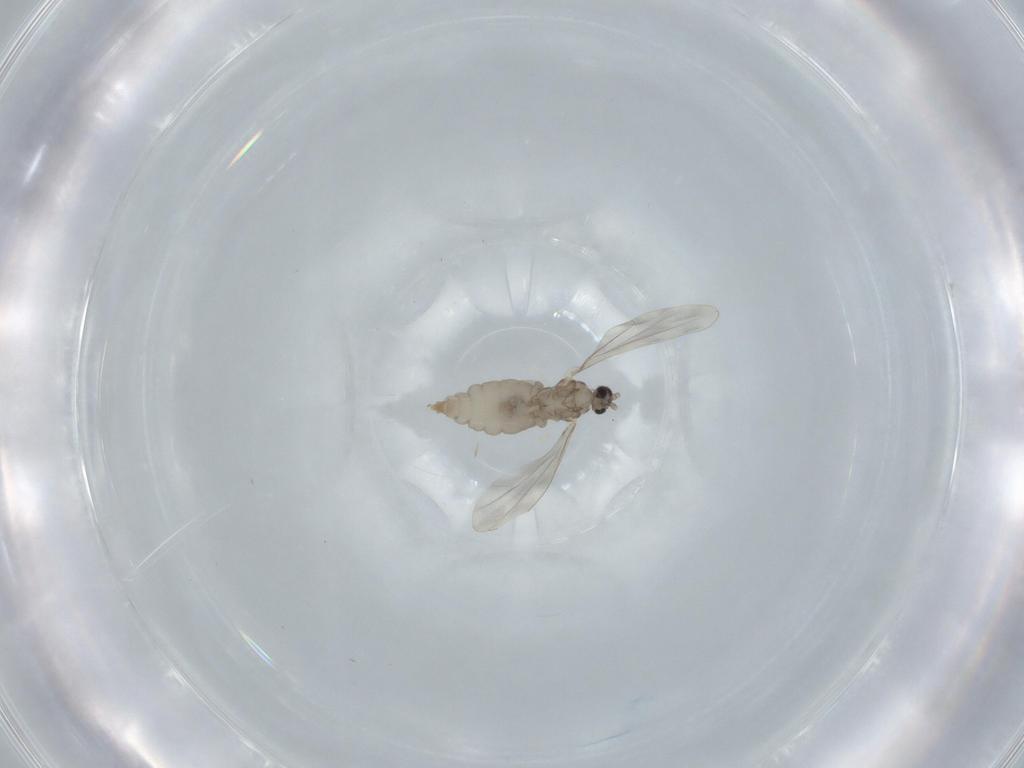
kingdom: Animalia
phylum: Arthropoda
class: Insecta
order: Diptera
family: Cecidomyiidae
